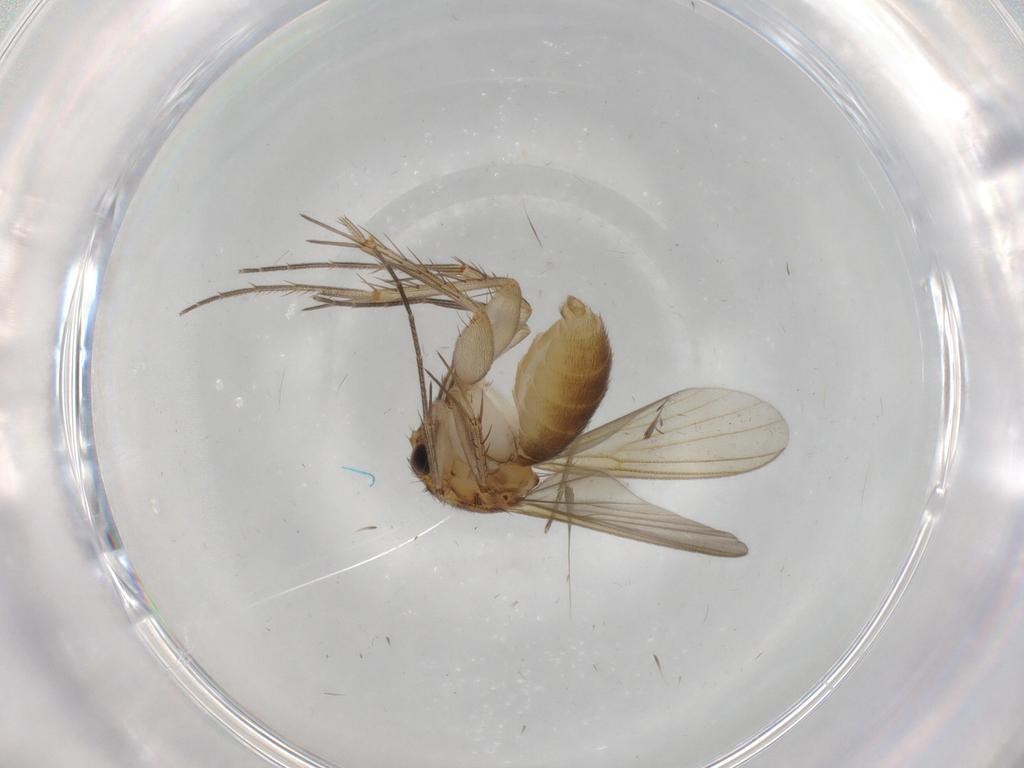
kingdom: Animalia
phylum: Arthropoda
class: Insecta
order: Diptera
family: Mycetophilidae
